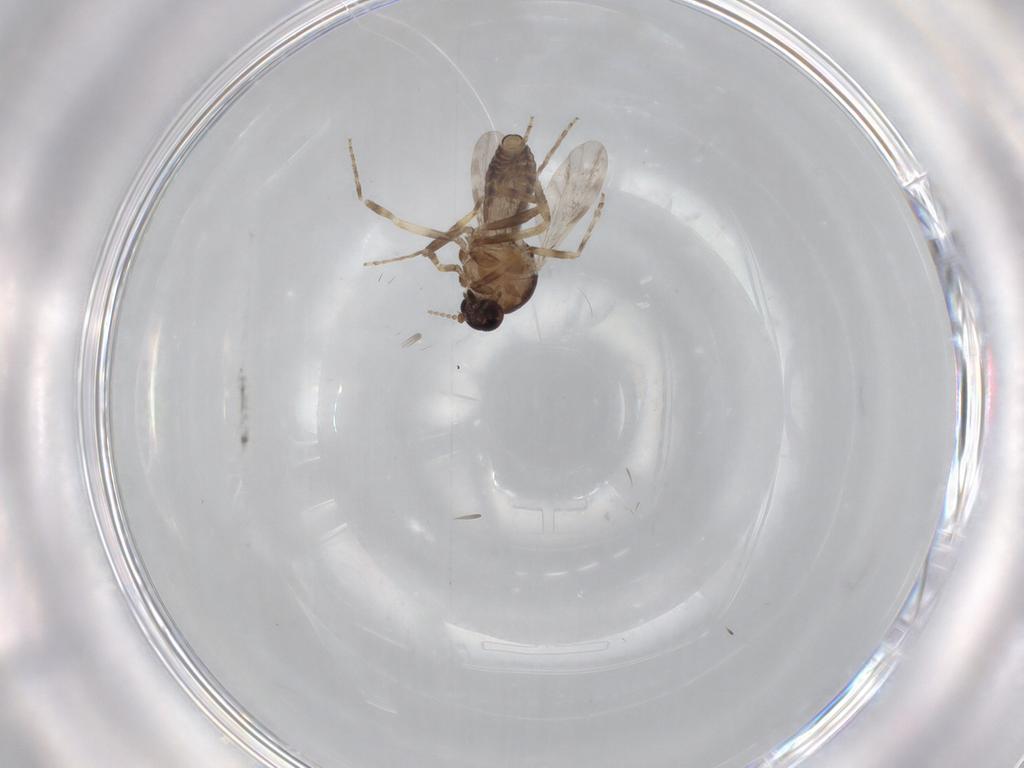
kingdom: Animalia
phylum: Arthropoda
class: Insecta
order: Diptera
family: Ceratopogonidae
